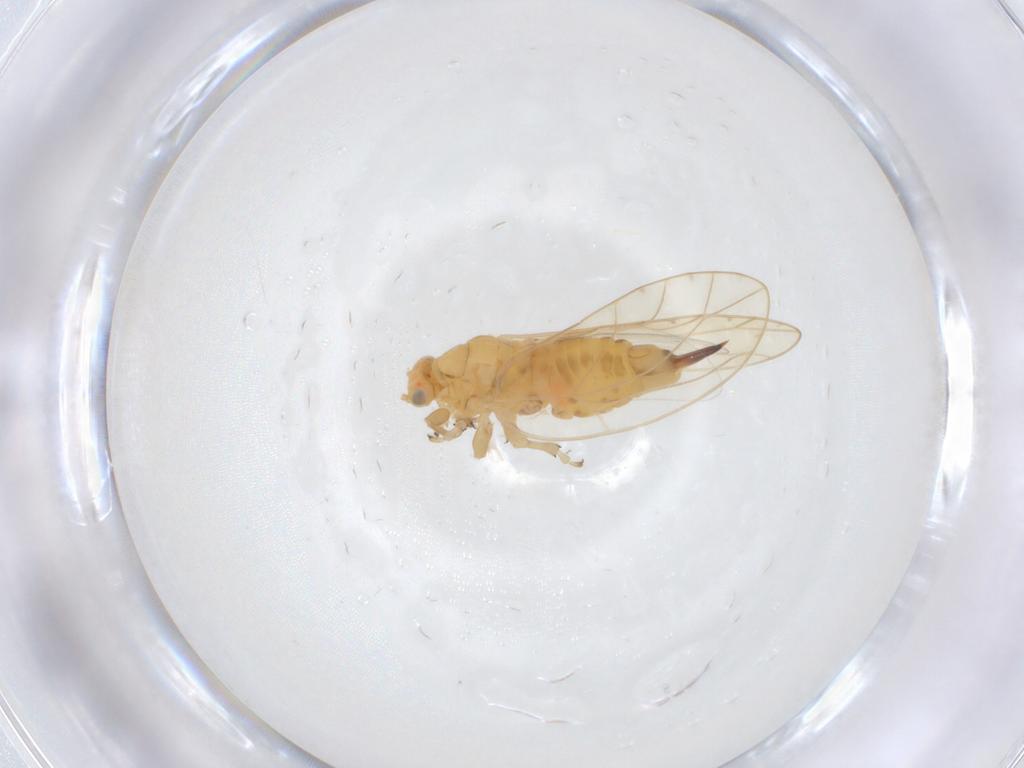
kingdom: Animalia
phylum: Arthropoda
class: Insecta
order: Hemiptera
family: Triozidae
